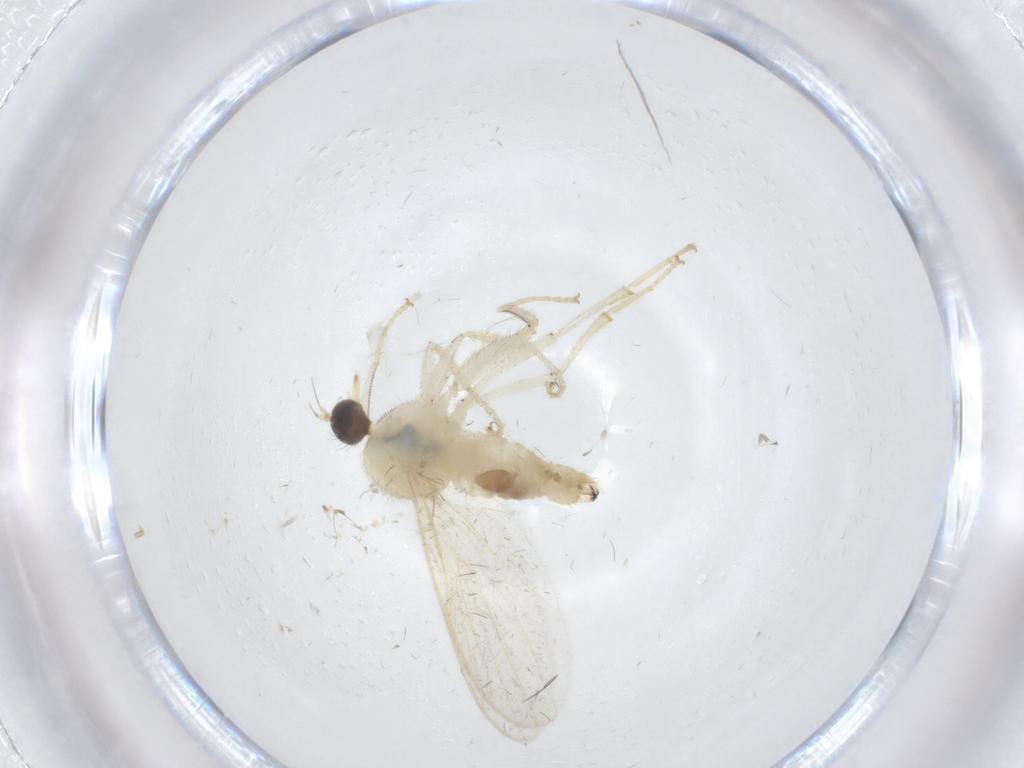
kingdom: Animalia
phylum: Arthropoda
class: Insecta
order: Diptera
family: Hybotidae
